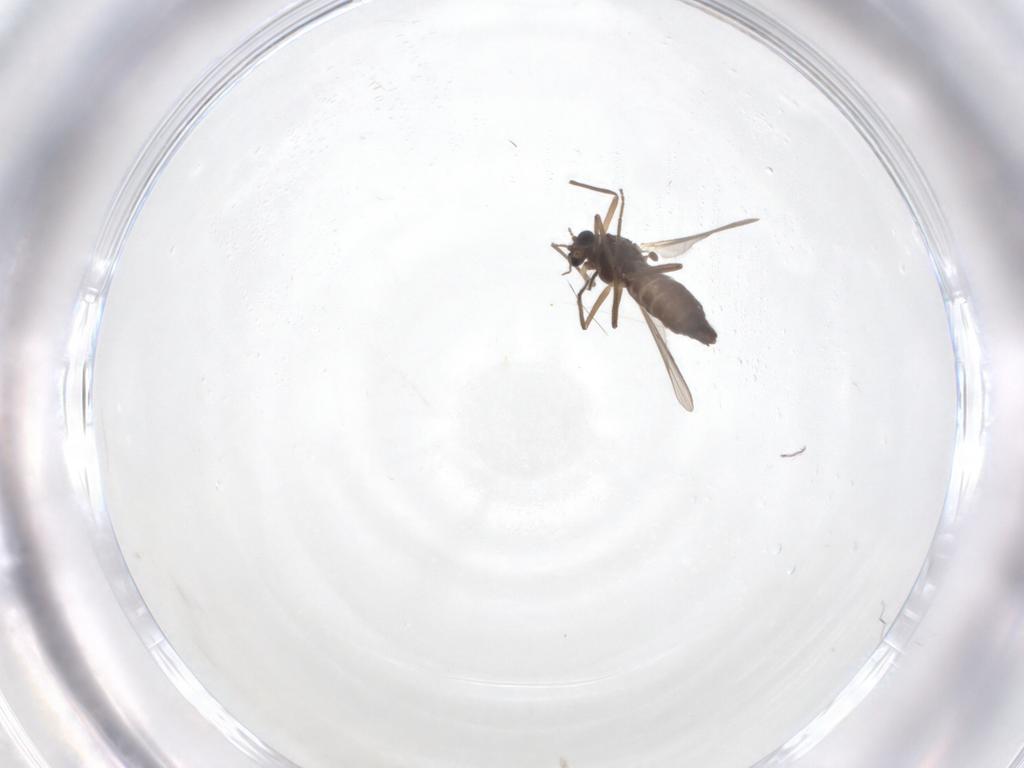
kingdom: Animalia
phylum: Arthropoda
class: Insecta
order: Diptera
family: Chironomidae
